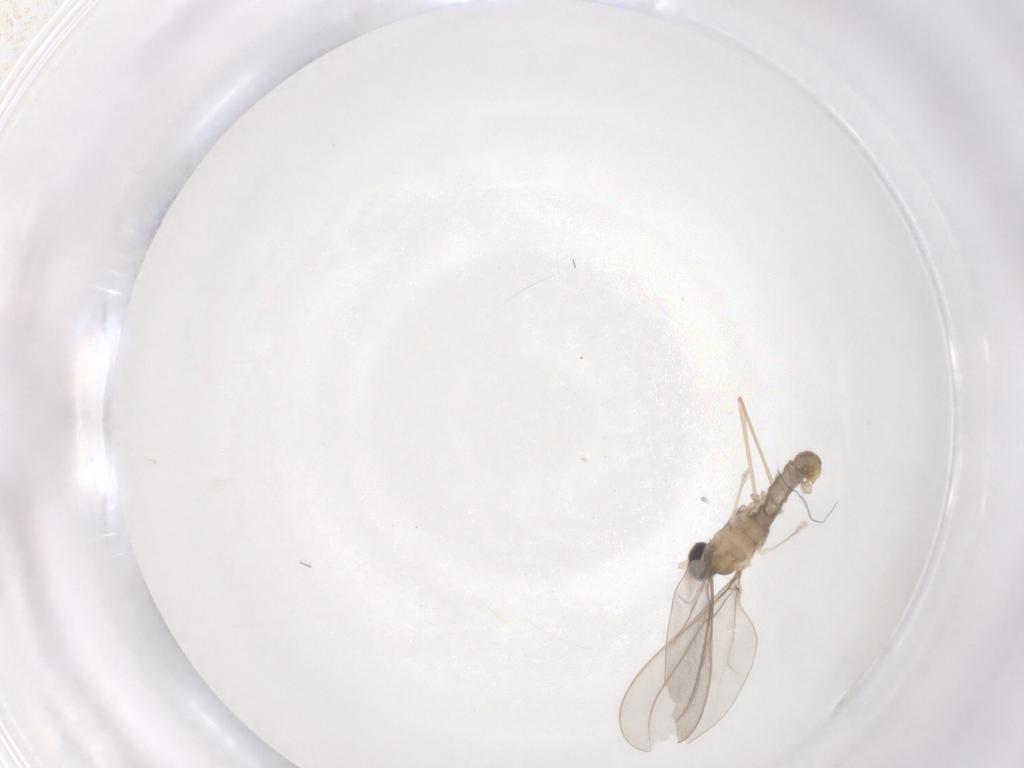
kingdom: Animalia
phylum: Arthropoda
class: Insecta
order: Diptera
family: Cecidomyiidae
